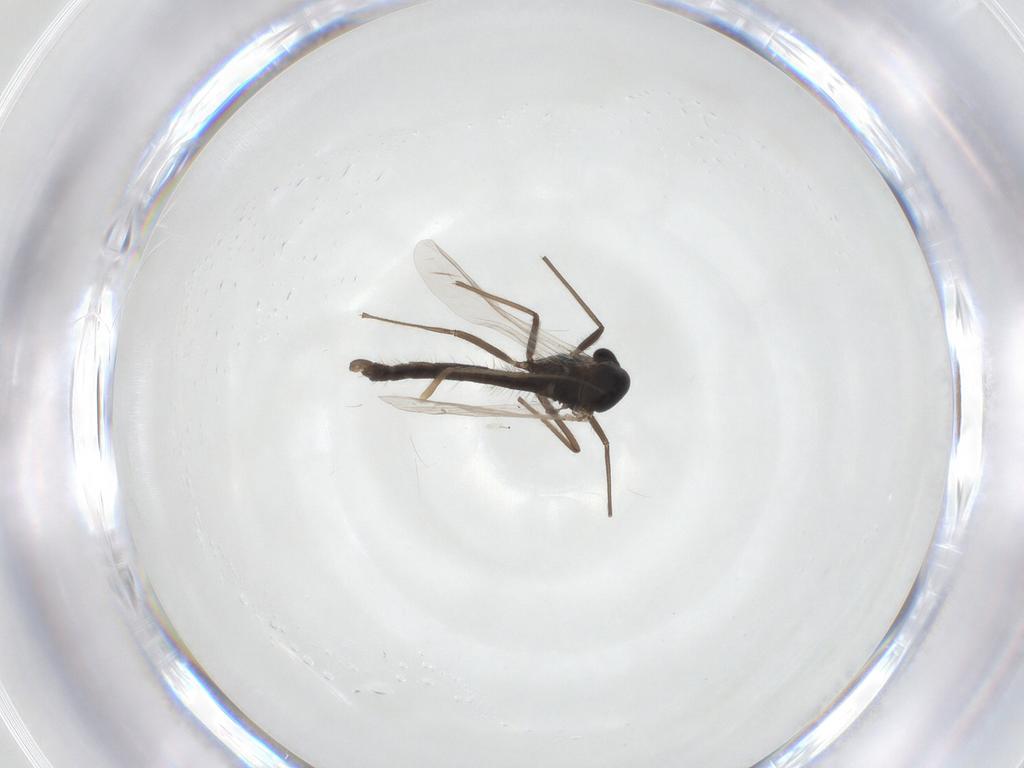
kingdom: Animalia
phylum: Arthropoda
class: Insecta
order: Diptera
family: Chironomidae
